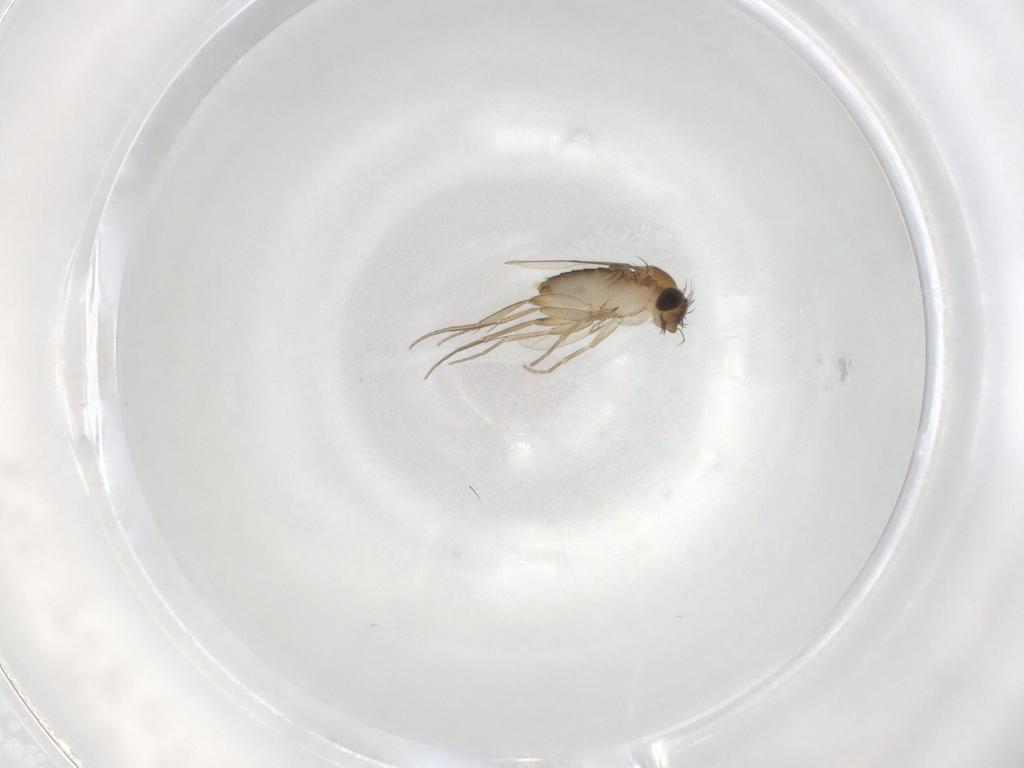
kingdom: Animalia
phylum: Arthropoda
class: Insecta
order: Diptera
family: Phoridae
